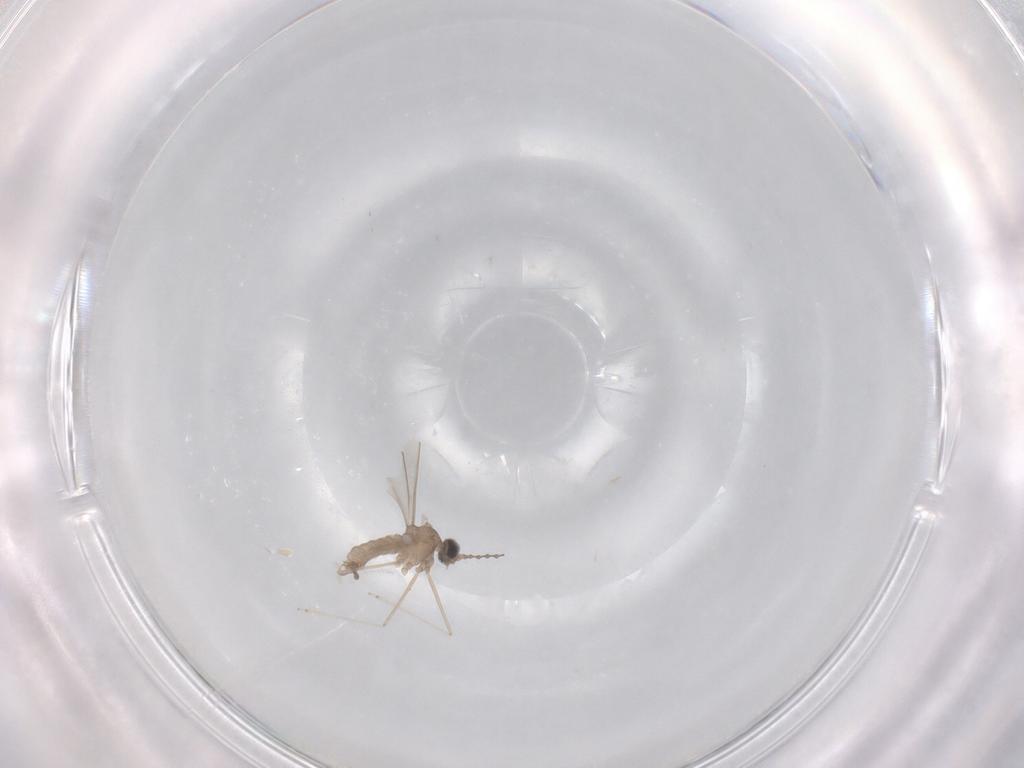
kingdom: Animalia
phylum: Arthropoda
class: Insecta
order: Diptera
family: Cecidomyiidae
